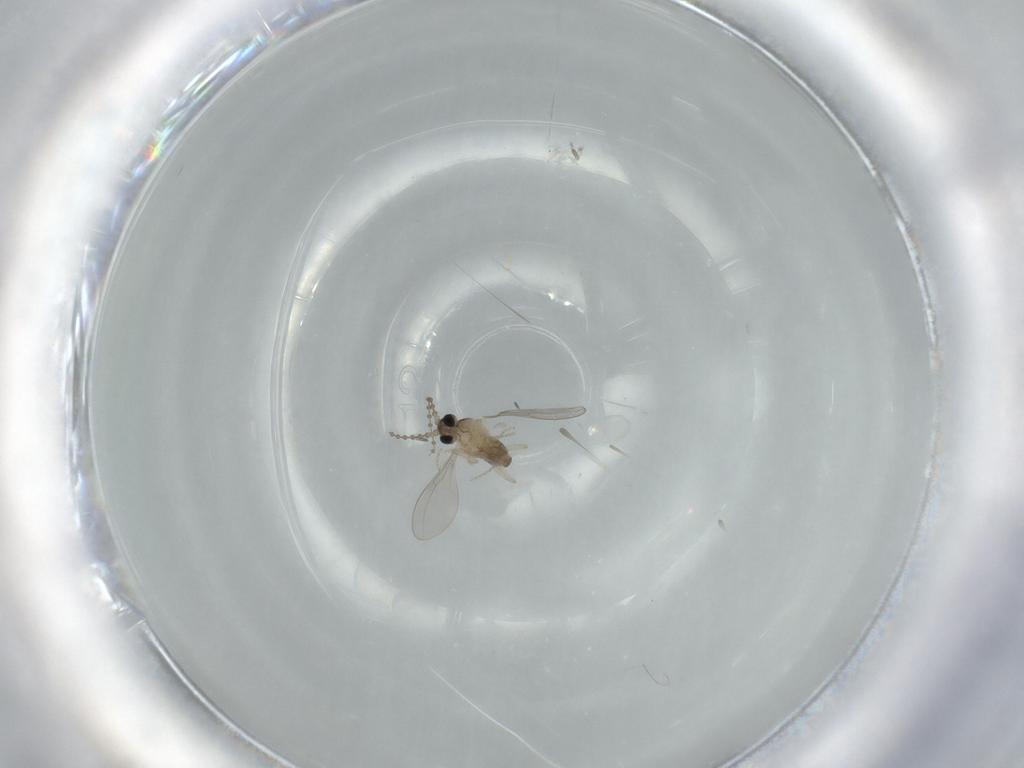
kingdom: Animalia
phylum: Arthropoda
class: Insecta
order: Diptera
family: Cecidomyiidae
